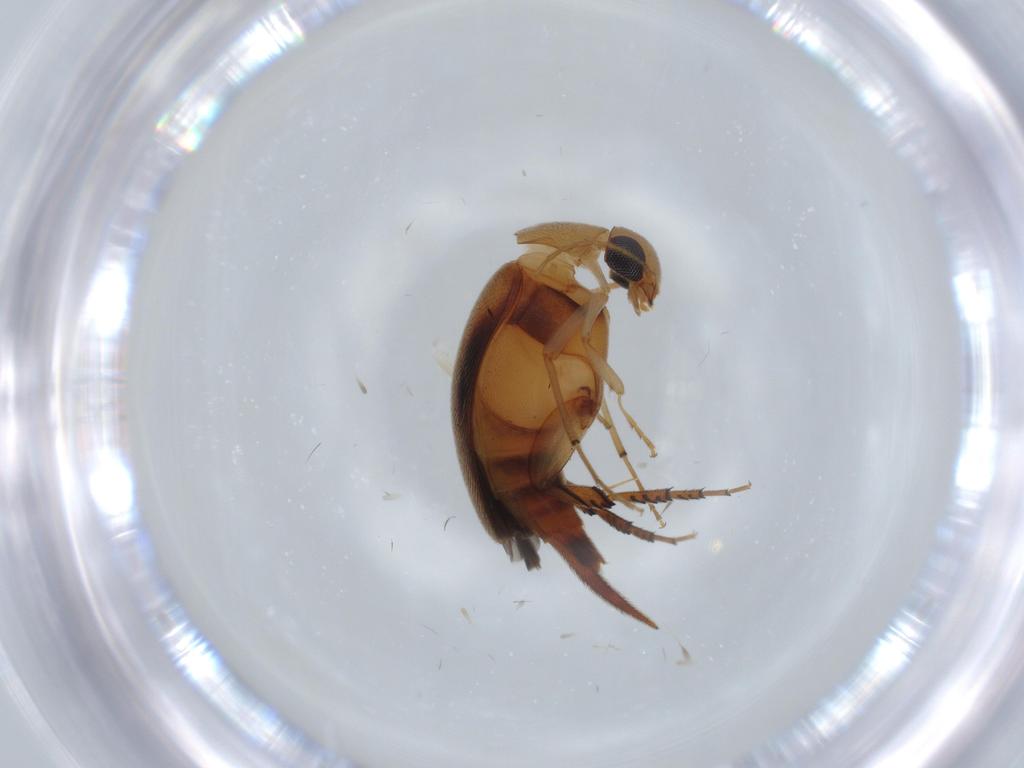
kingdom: Animalia
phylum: Arthropoda
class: Insecta
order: Coleoptera
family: Mordellidae
